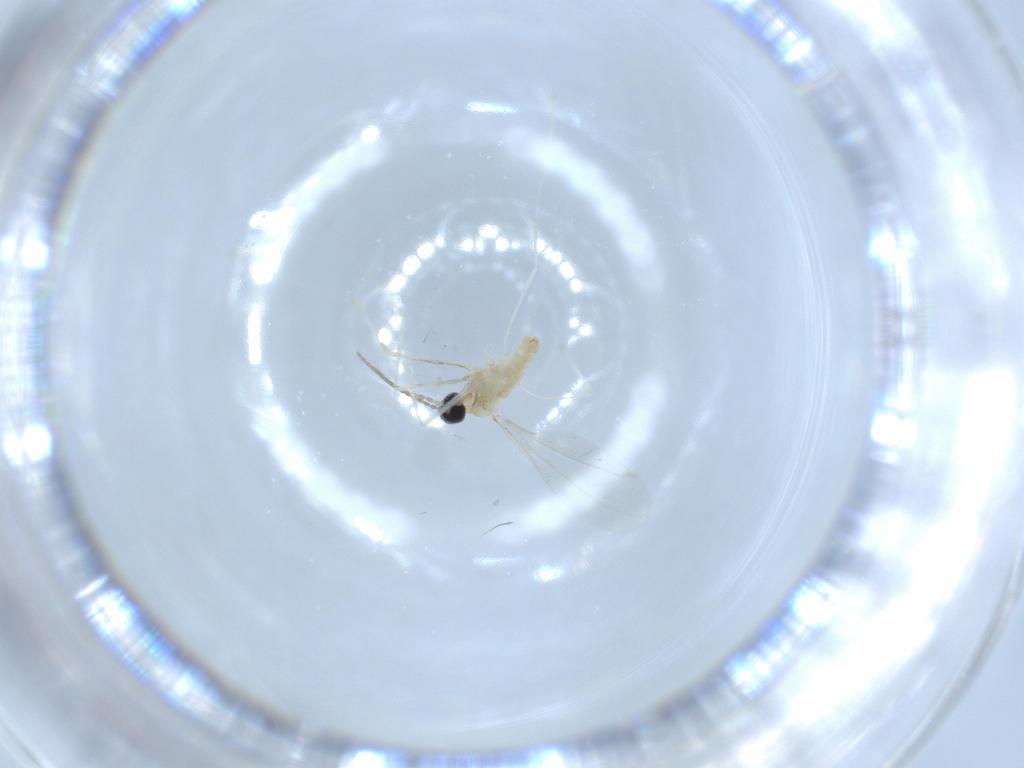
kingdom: Animalia
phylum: Arthropoda
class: Insecta
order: Diptera
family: Cecidomyiidae
